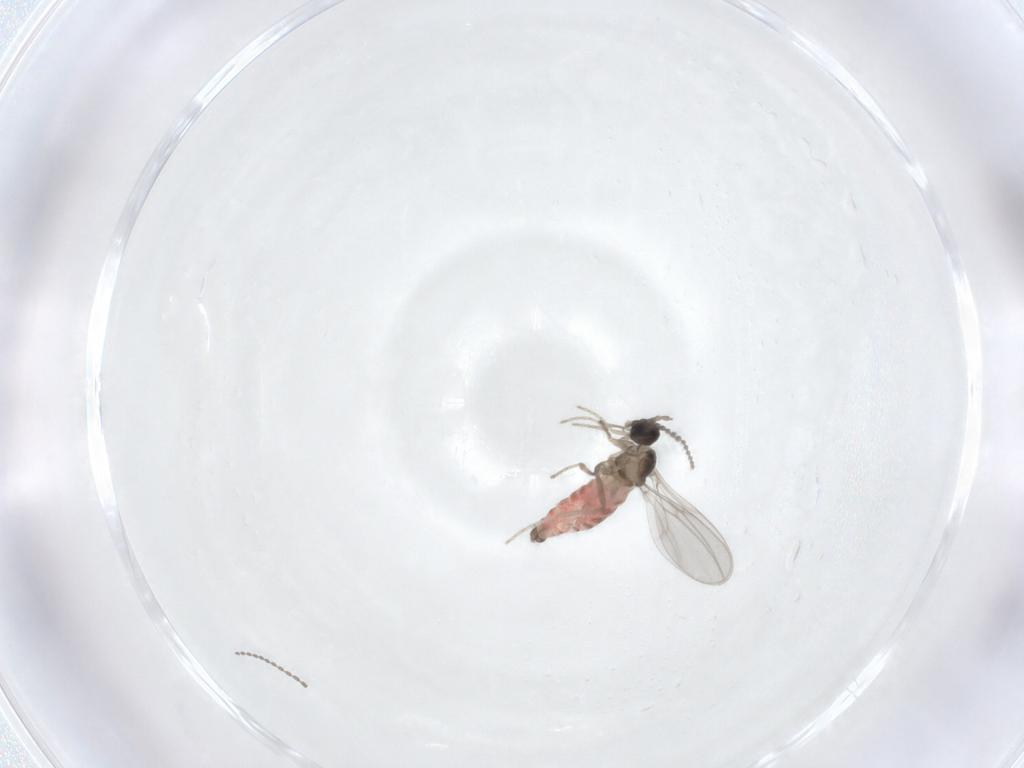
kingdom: Animalia
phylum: Arthropoda
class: Insecta
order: Diptera
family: Cecidomyiidae
